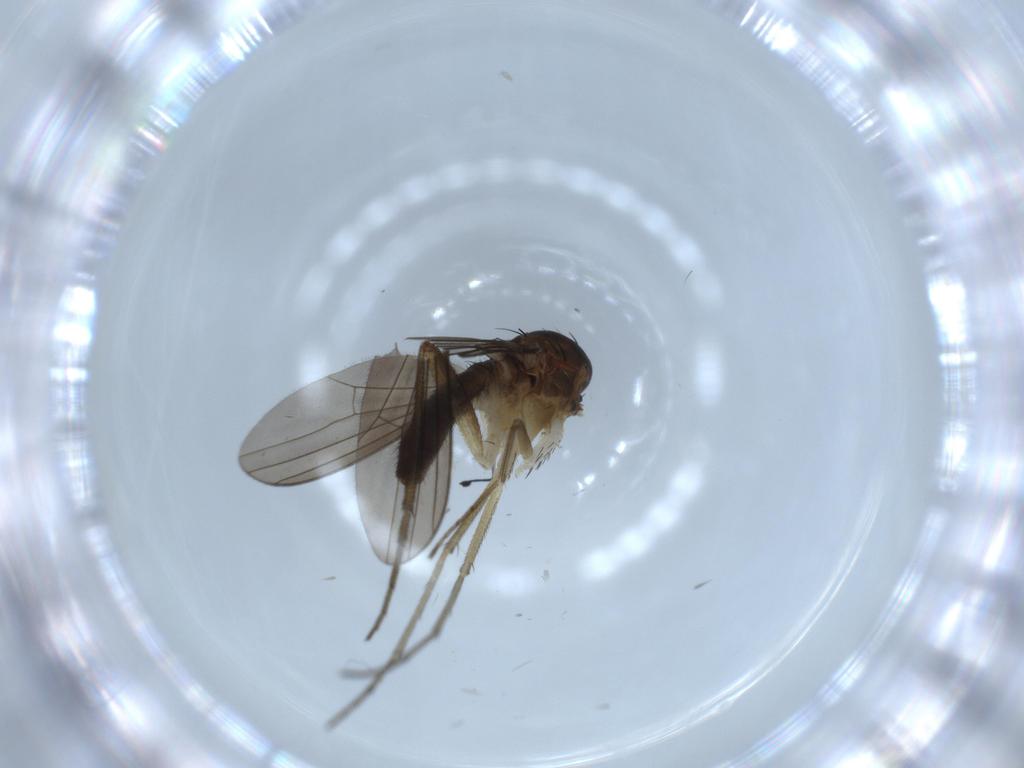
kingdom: Animalia
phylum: Arthropoda
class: Insecta
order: Diptera
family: Dolichopodidae
